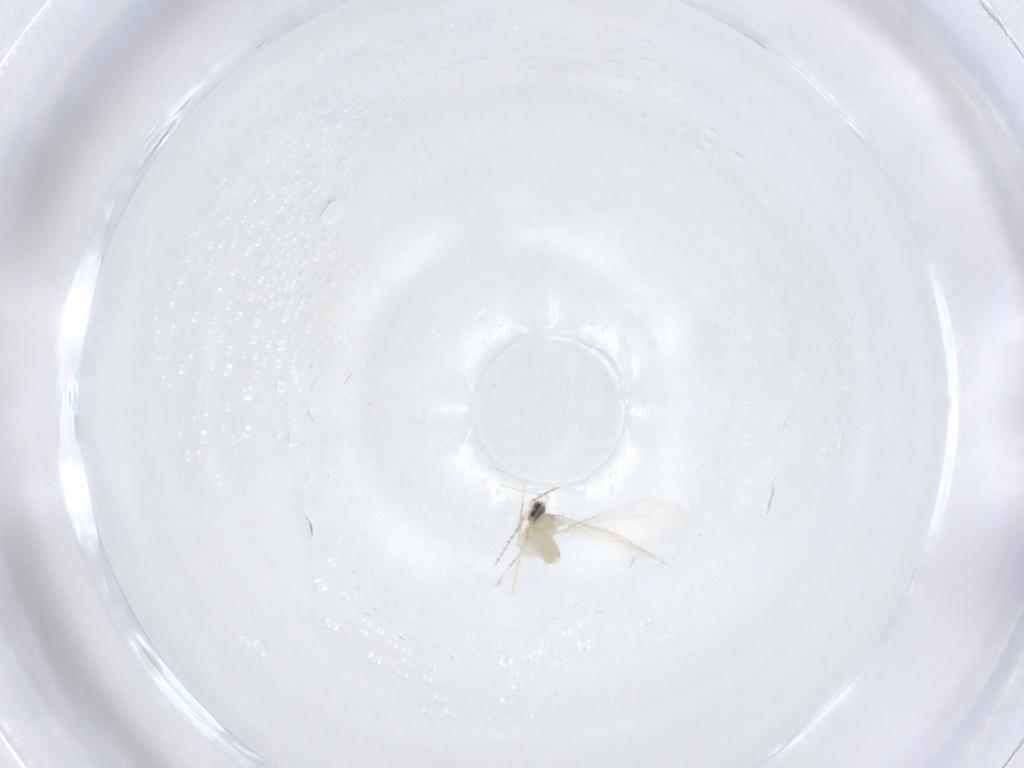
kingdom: Animalia
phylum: Arthropoda
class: Insecta
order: Diptera
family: Cecidomyiidae
